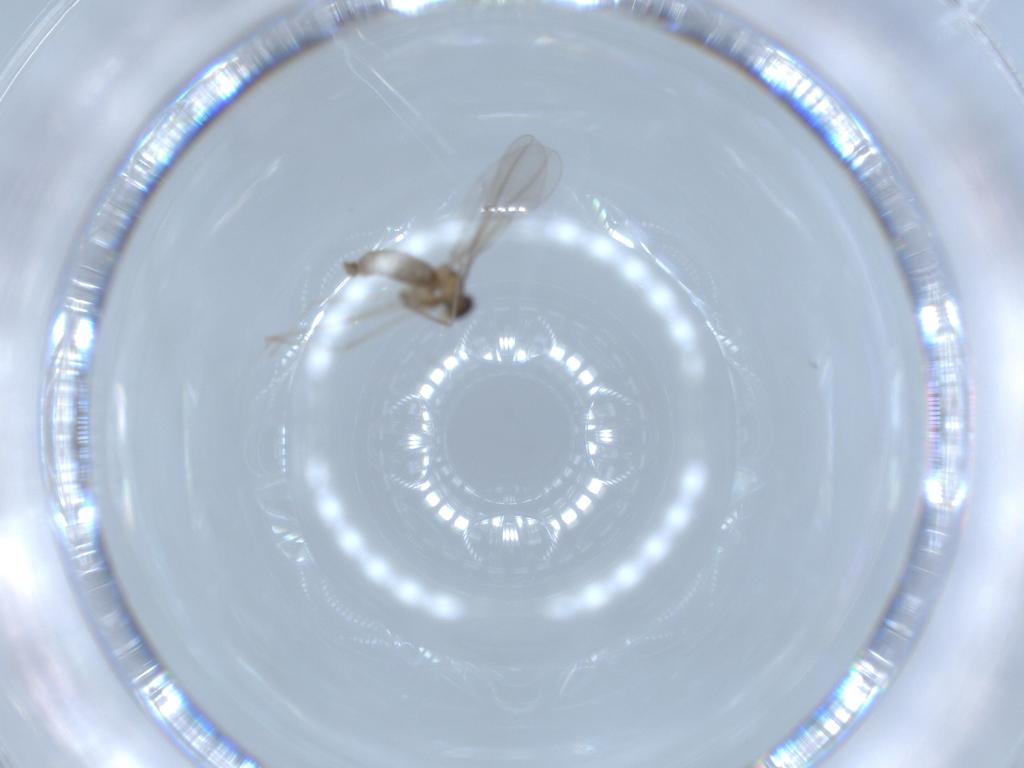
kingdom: Animalia
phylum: Arthropoda
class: Insecta
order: Diptera
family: Cecidomyiidae
